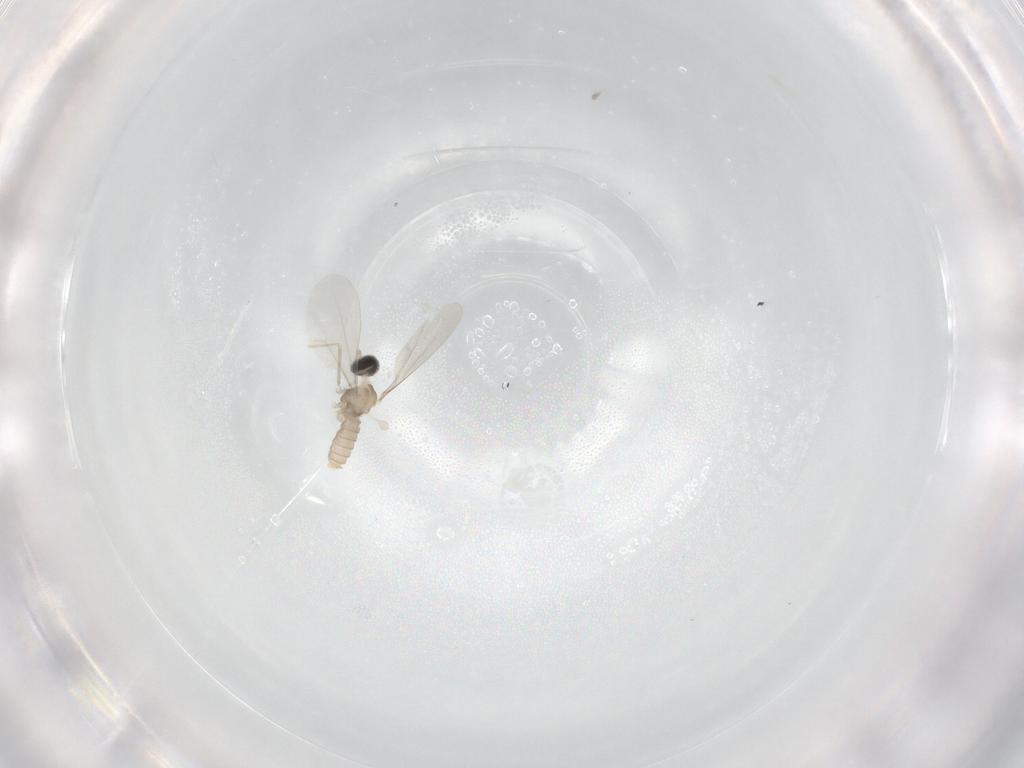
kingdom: Animalia
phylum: Arthropoda
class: Insecta
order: Diptera
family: Cecidomyiidae
